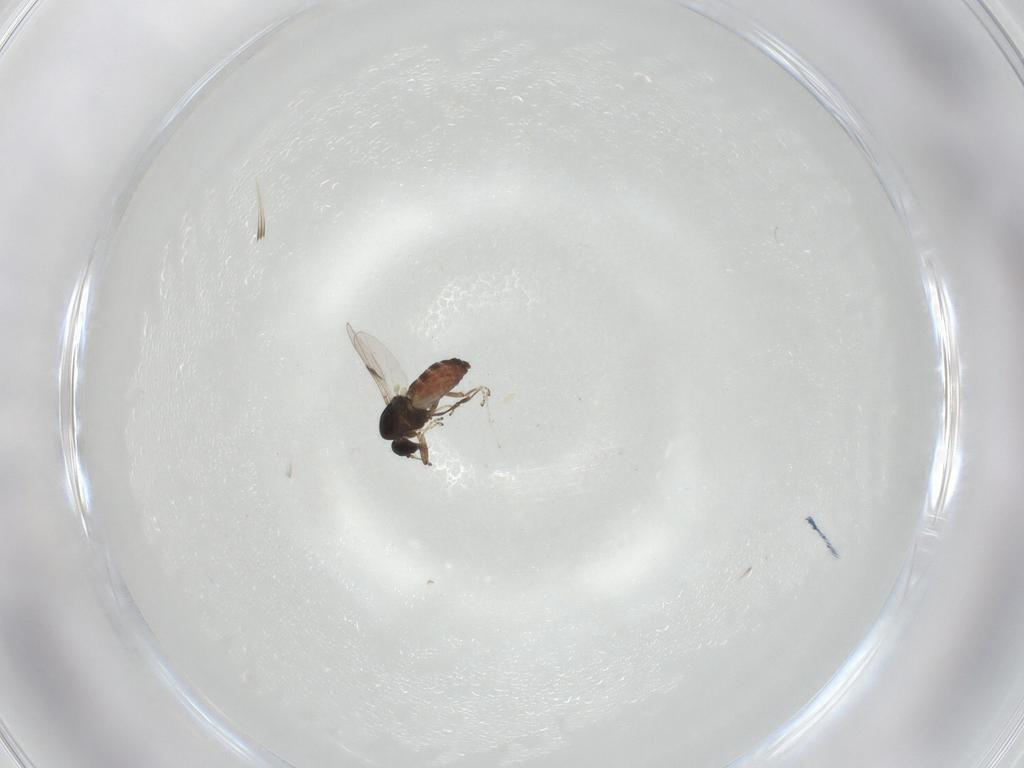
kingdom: Animalia
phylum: Arthropoda
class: Insecta
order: Diptera
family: Ceratopogonidae
